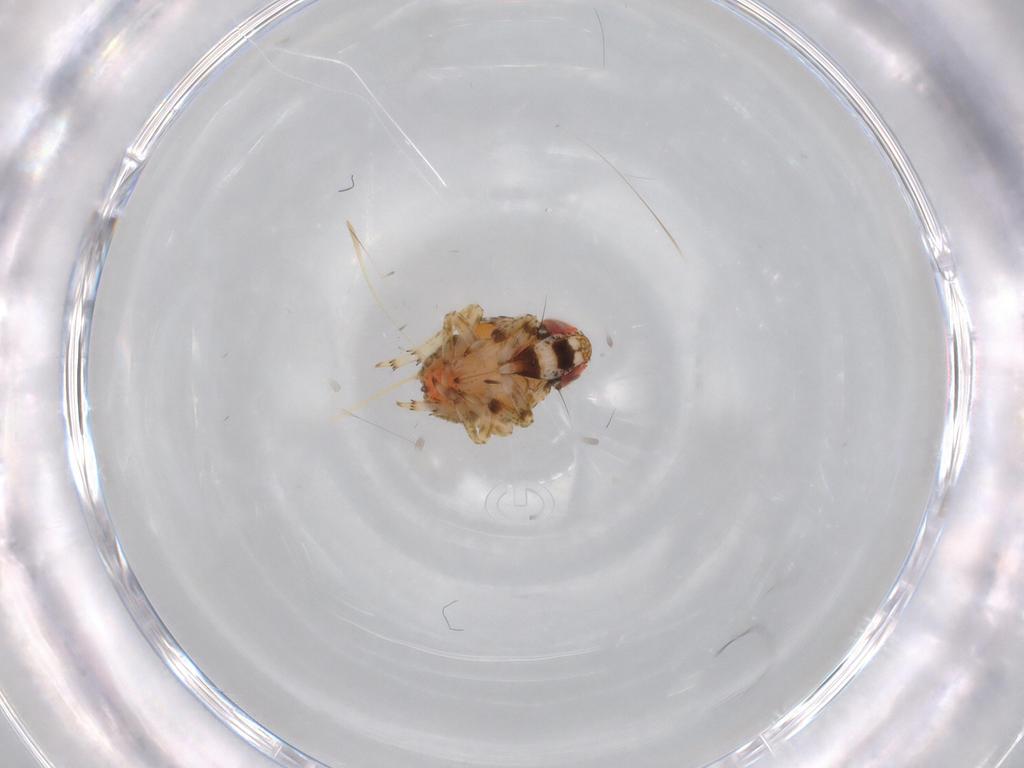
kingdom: Animalia
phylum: Arthropoda
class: Insecta
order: Hemiptera
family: Issidae
